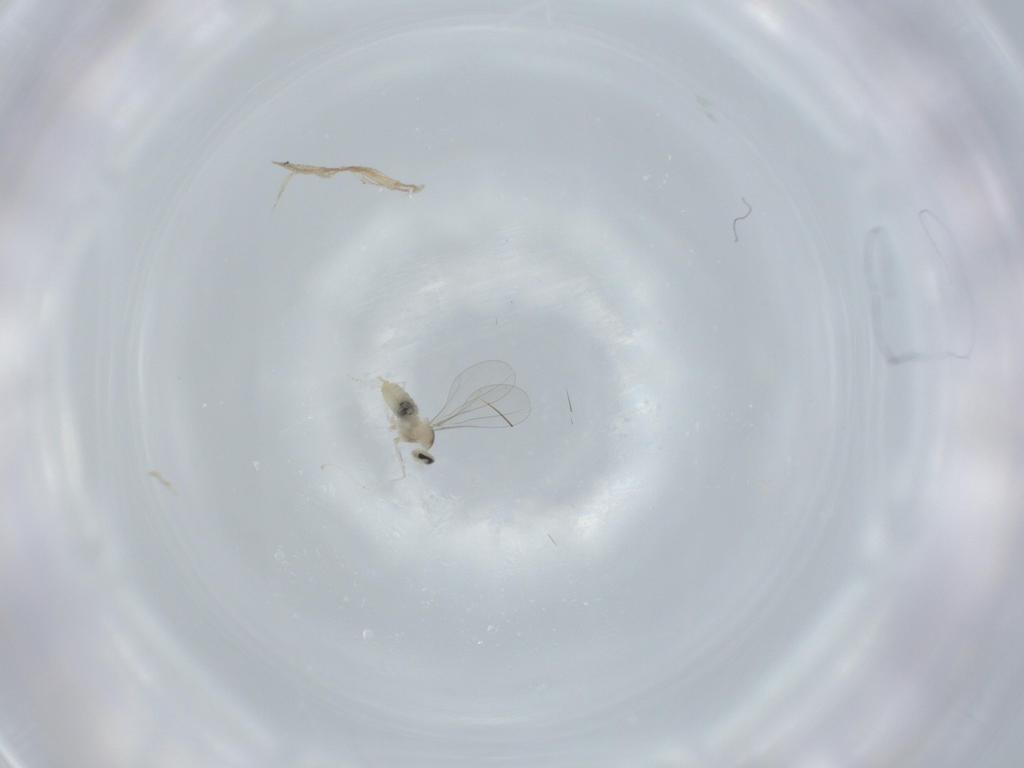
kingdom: Animalia
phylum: Arthropoda
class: Insecta
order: Diptera
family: Cecidomyiidae
